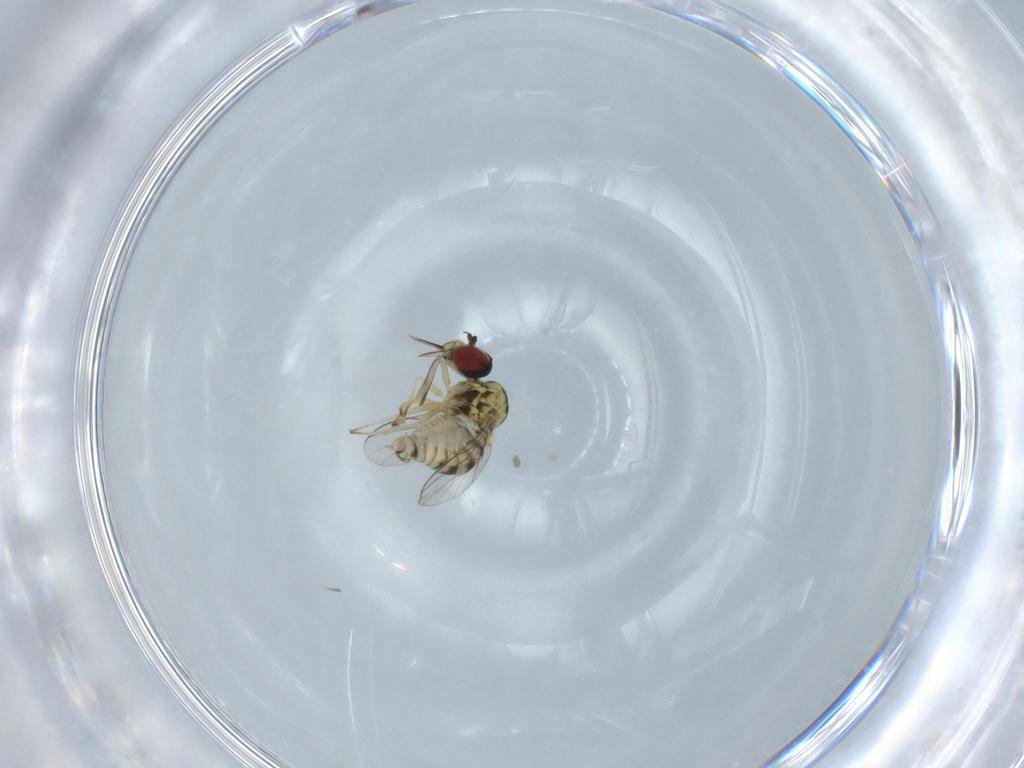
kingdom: Animalia
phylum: Arthropoda
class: Insecta
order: Diptera
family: Bombyliidae
